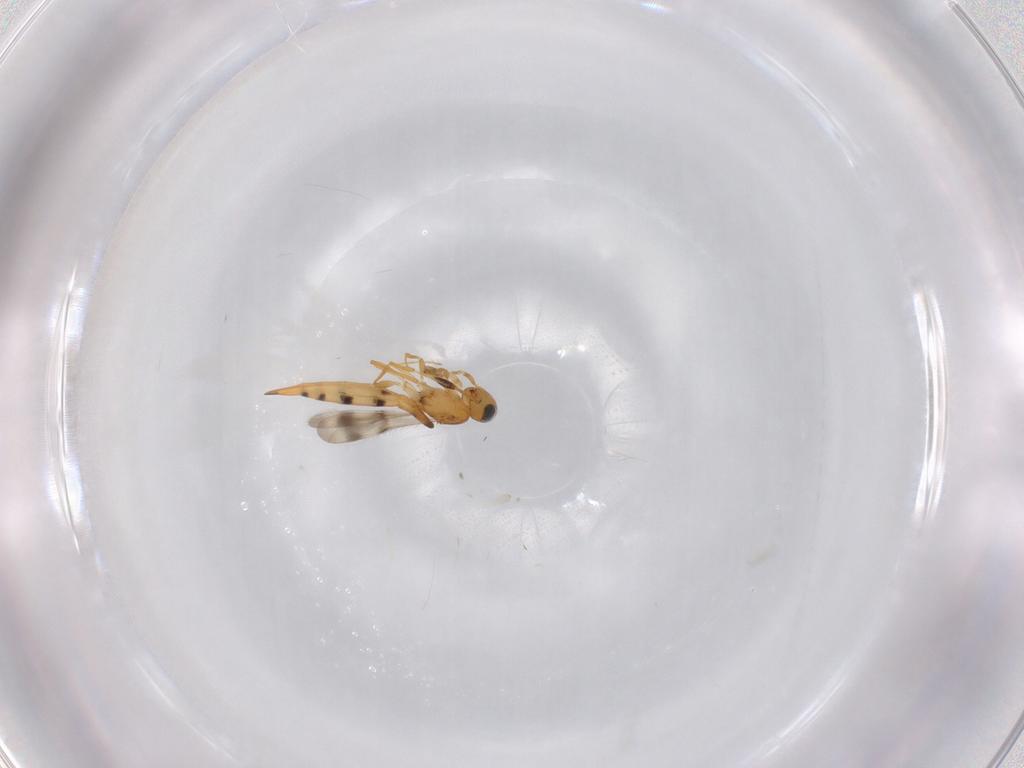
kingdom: Animalia
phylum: Arthropoda
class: Insecta
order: Hymenoptera
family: Scelionidae
